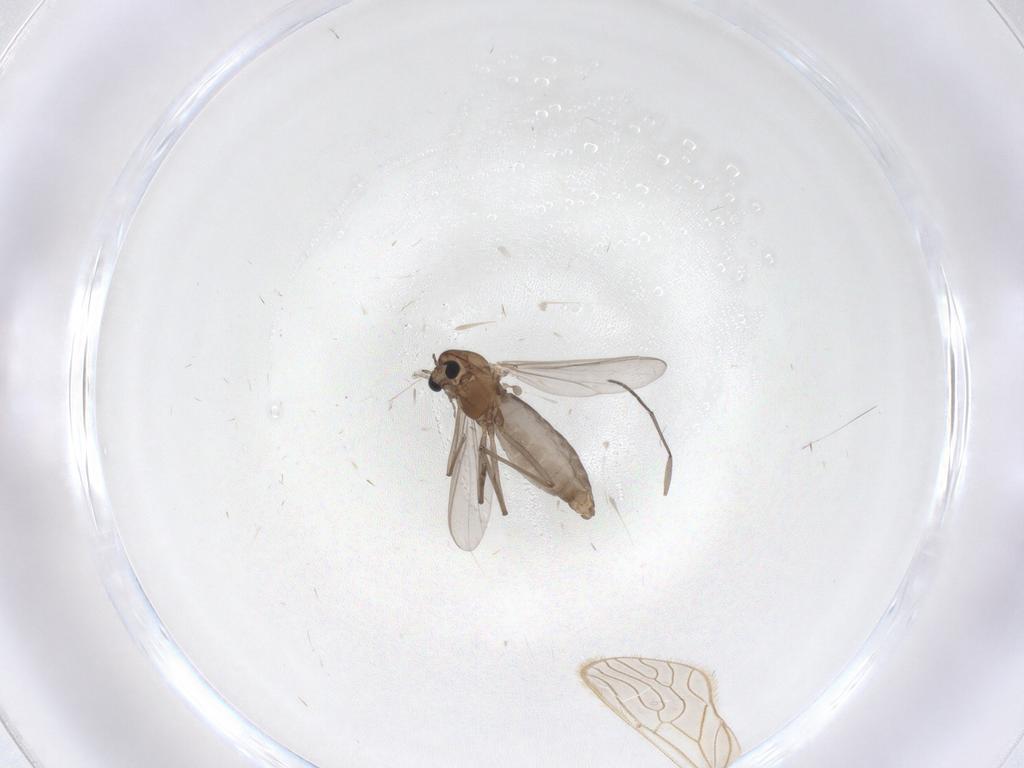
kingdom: Animalia
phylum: Arthropoda
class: Insecta
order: Diptera
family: Chironomidae
